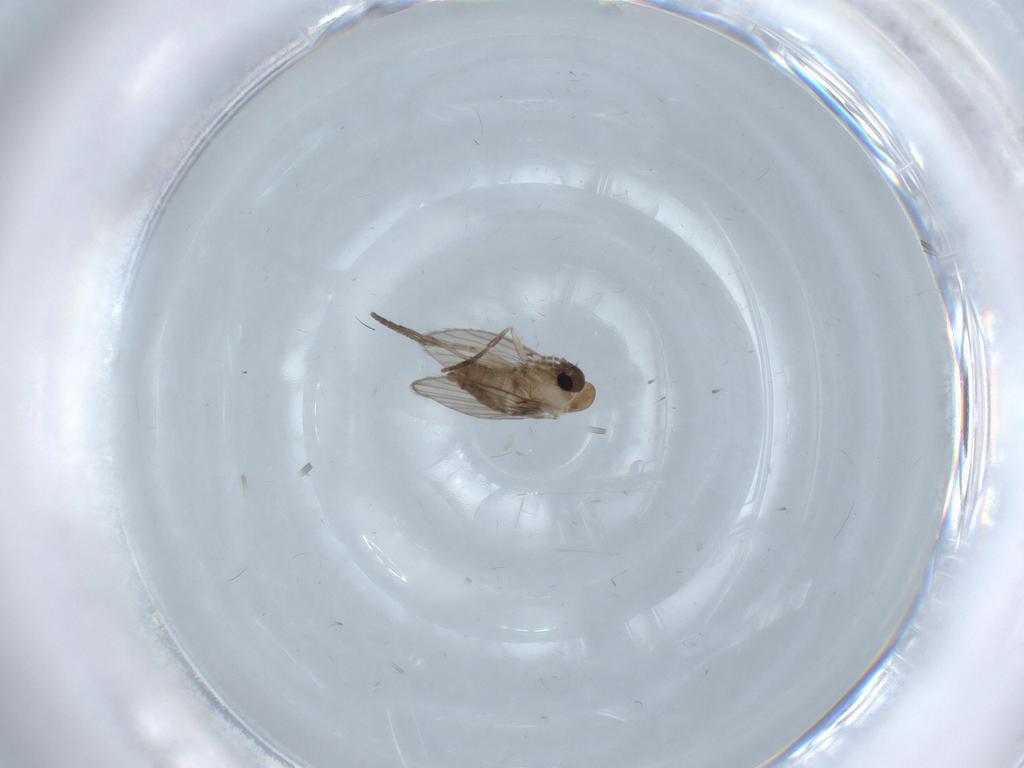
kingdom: Animalia
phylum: Arthropoda
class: Insecta
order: Diptera
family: Psychodidae
